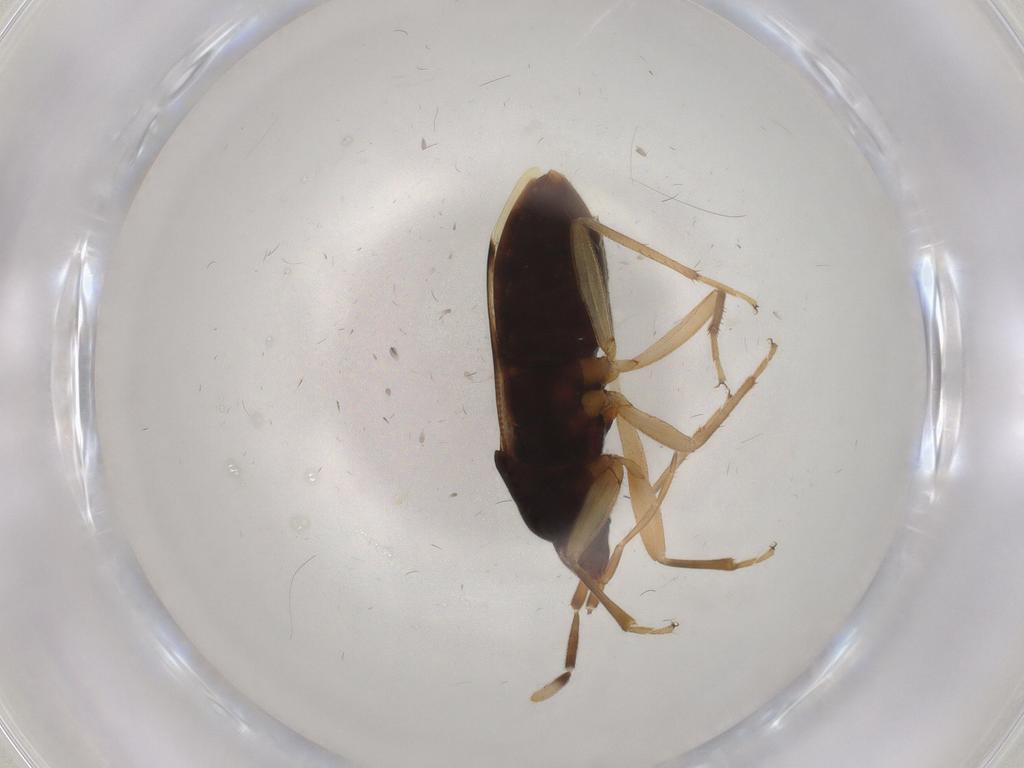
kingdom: Animalia
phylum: Arthropoda
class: Insecta
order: Hemiptera
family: Rhyparochromidae
